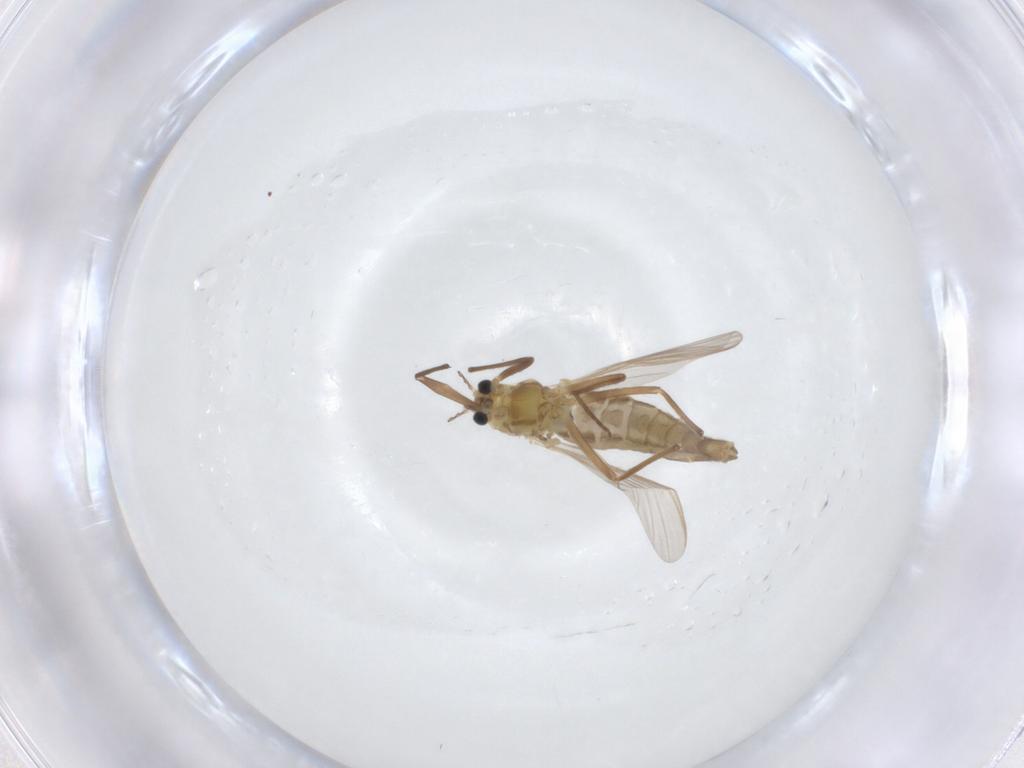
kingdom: Animalia
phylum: Arthropoda
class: Insecta
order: Diptera
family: Chironomidae
